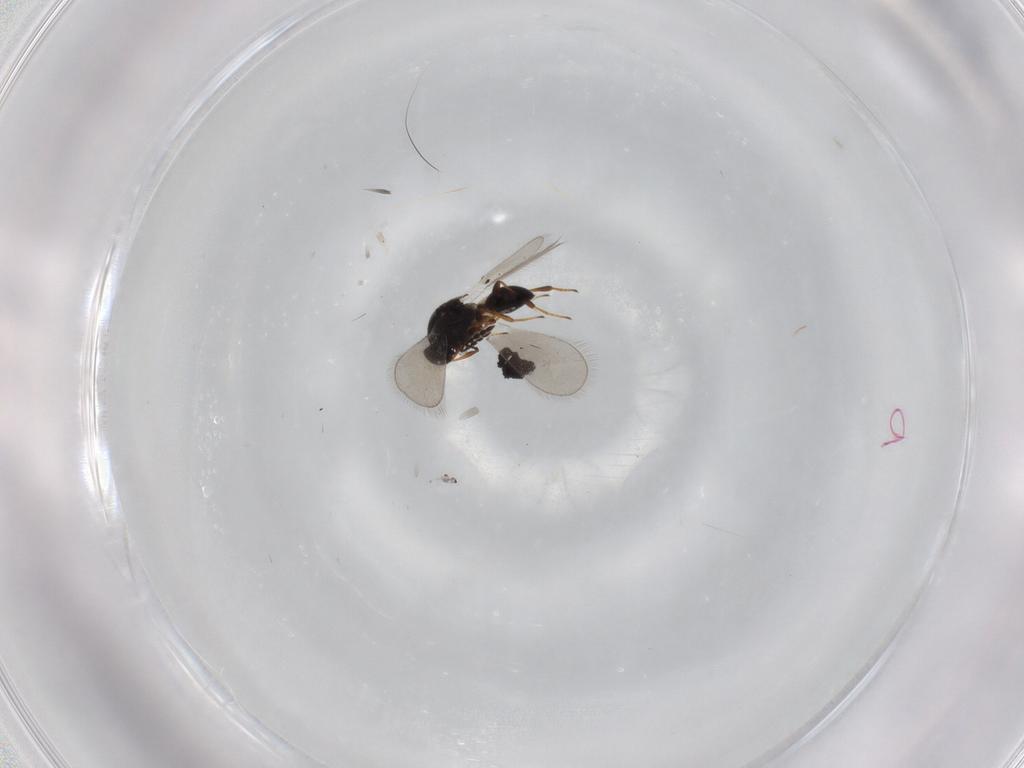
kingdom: Animalia
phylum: Arthropoda
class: Insecta
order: Hymenoptera
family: Platygastridae
